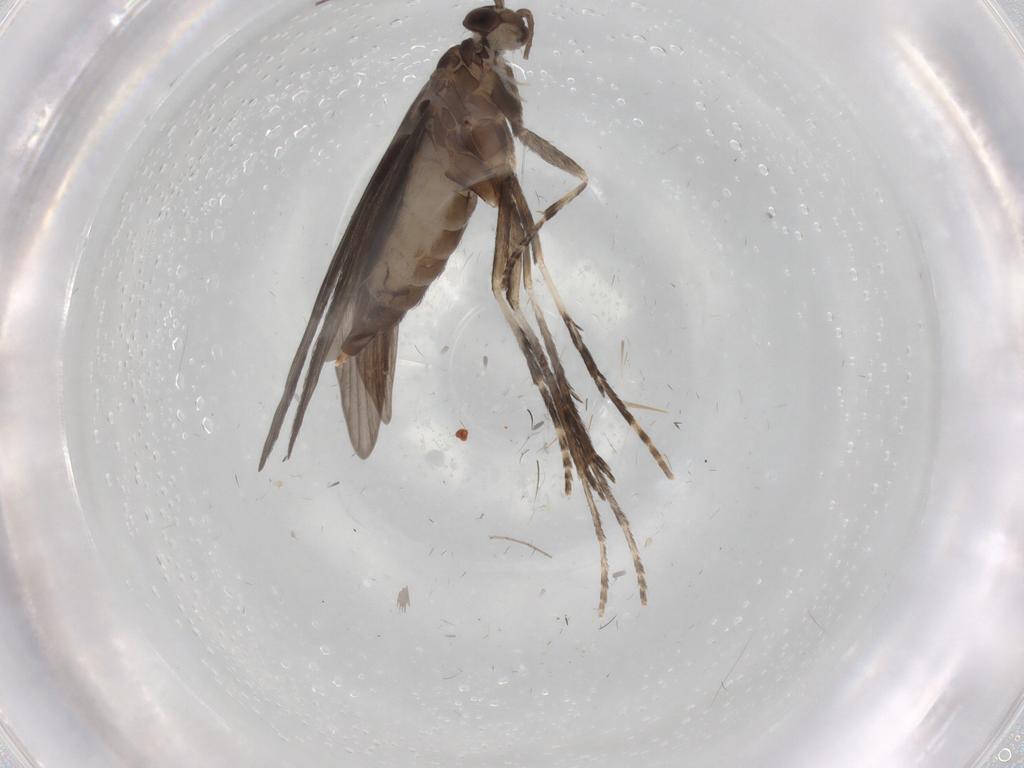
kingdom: Animalia
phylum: Arthropoda
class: Insecta
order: Trichoptera
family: Xiphocentronidae
